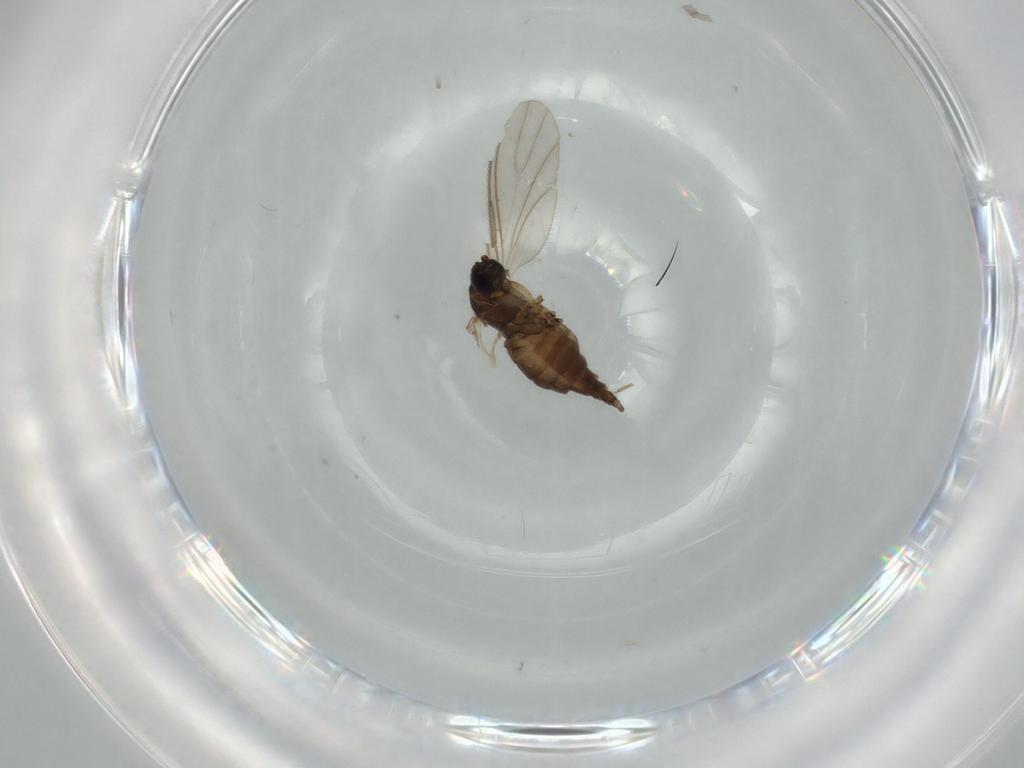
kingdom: Animalia
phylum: Arthropoda
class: Insecta
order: Diptera
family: Sciaridae
